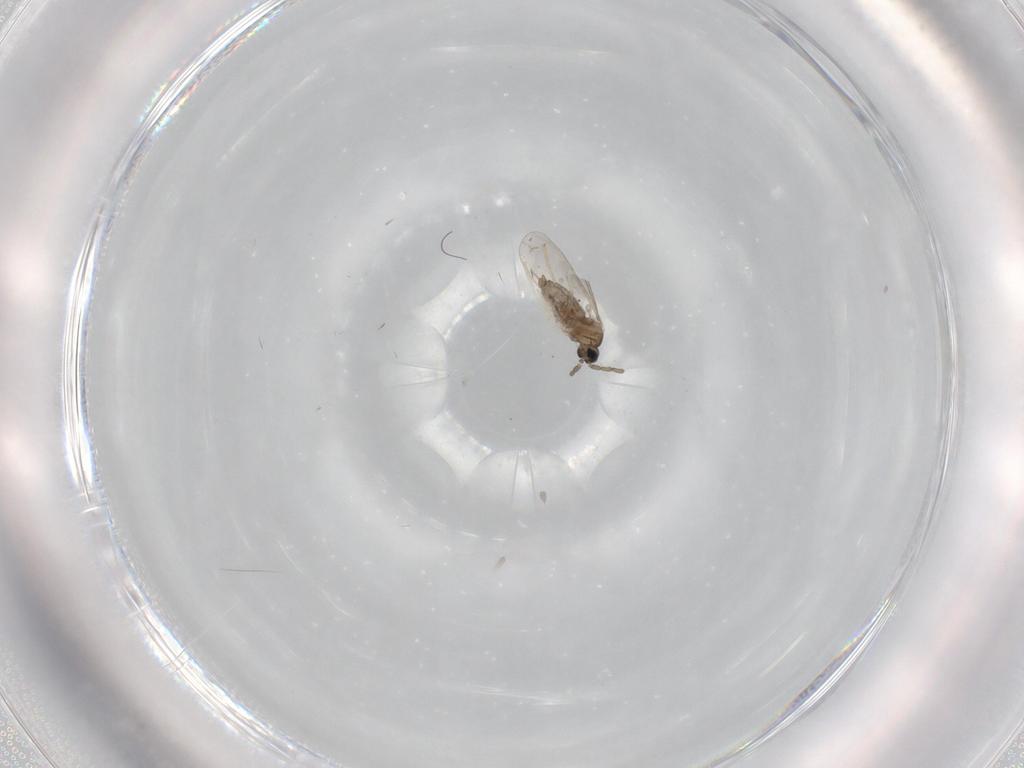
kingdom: Animalia
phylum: Arthropoda
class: Insecta
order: Diptera
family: Cecidomyiidae
